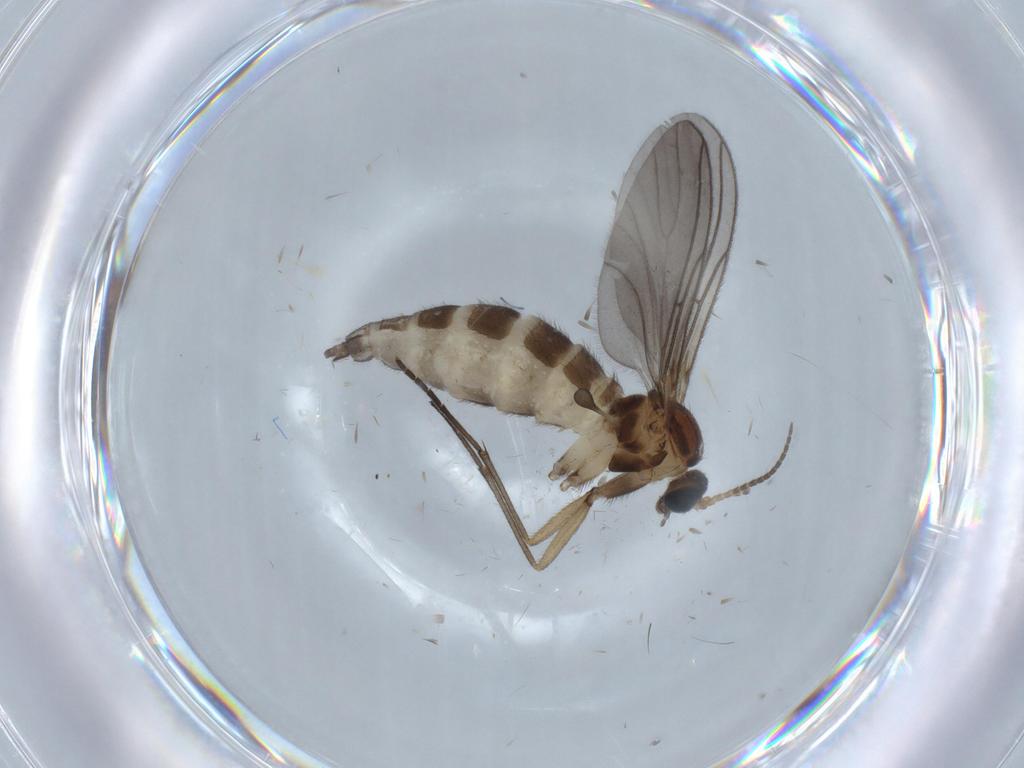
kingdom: Animalia
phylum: Arthropoda
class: Insecta
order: Diptera
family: Sciaridae
